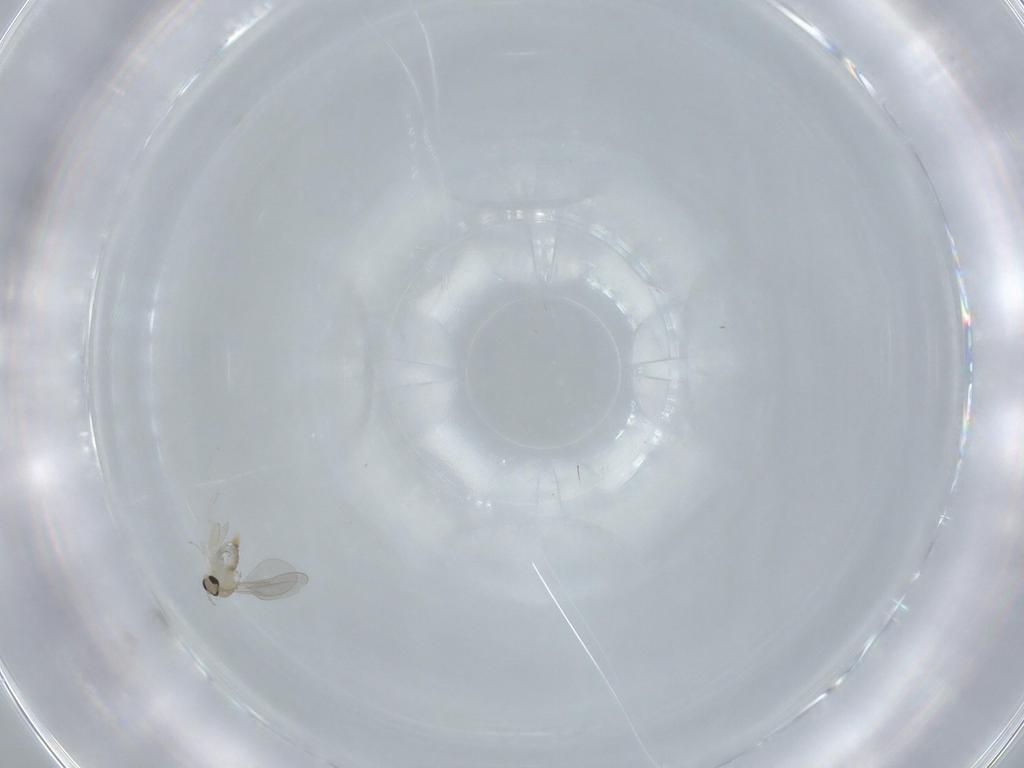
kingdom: Animalia
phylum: Arthropoda
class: Insecta
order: Diptera
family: Cecidomyiidae
